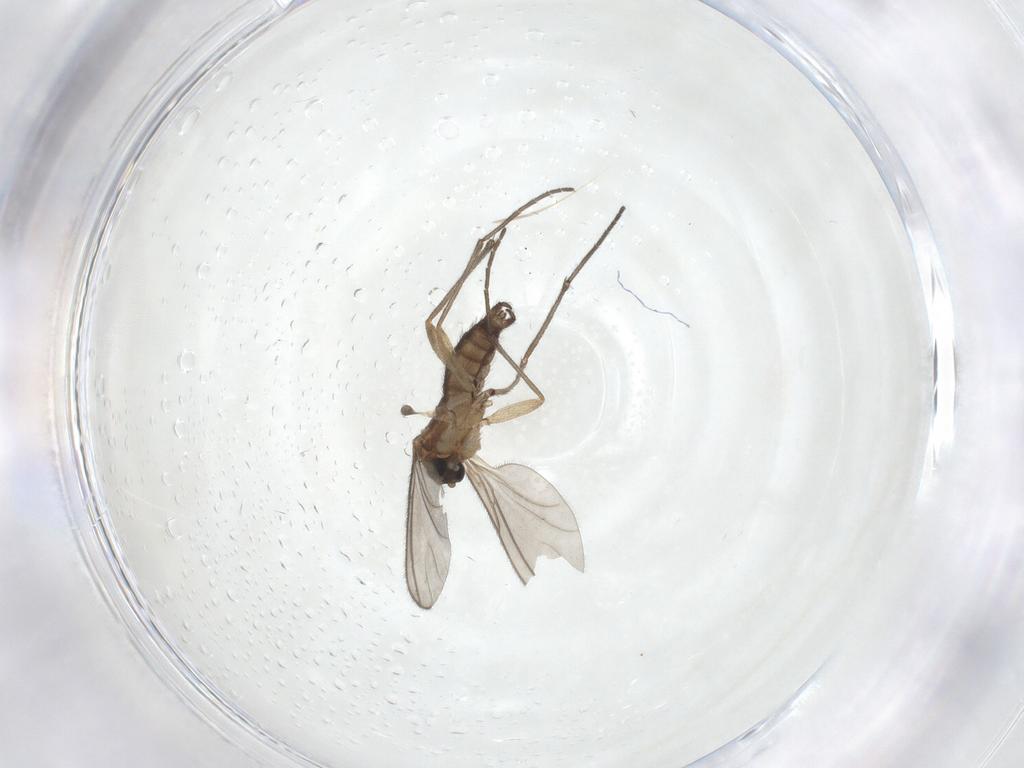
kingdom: Animalia
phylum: Arthropoda
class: Insecta
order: Diptera
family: Sciaridae
